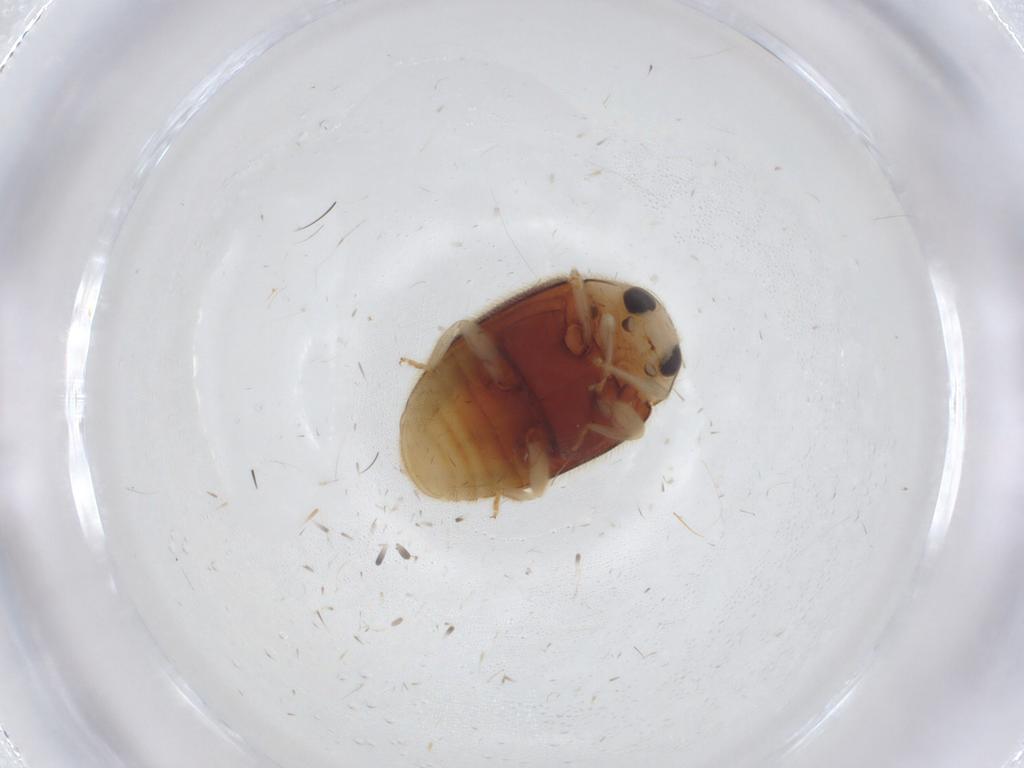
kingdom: Animalia
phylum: Arthropoda
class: Insecta
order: Coleoptera
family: Coccinellidae
